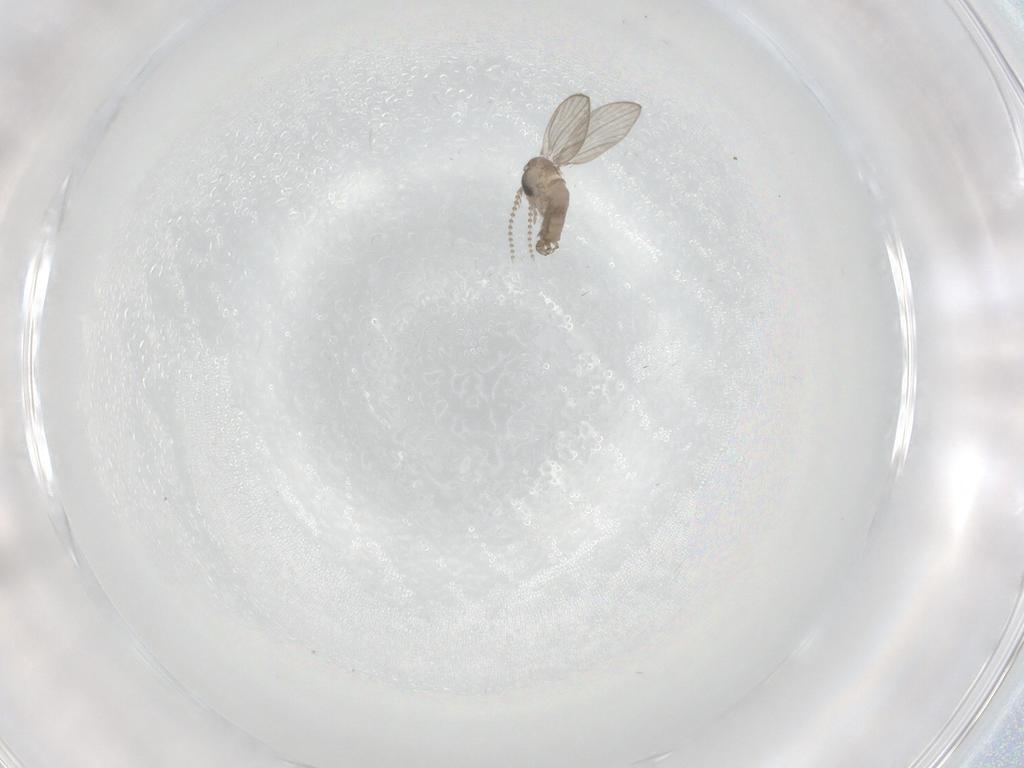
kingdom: Animalia
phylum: Arthropoda
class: Insecta
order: Diptera
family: Psychodidae
